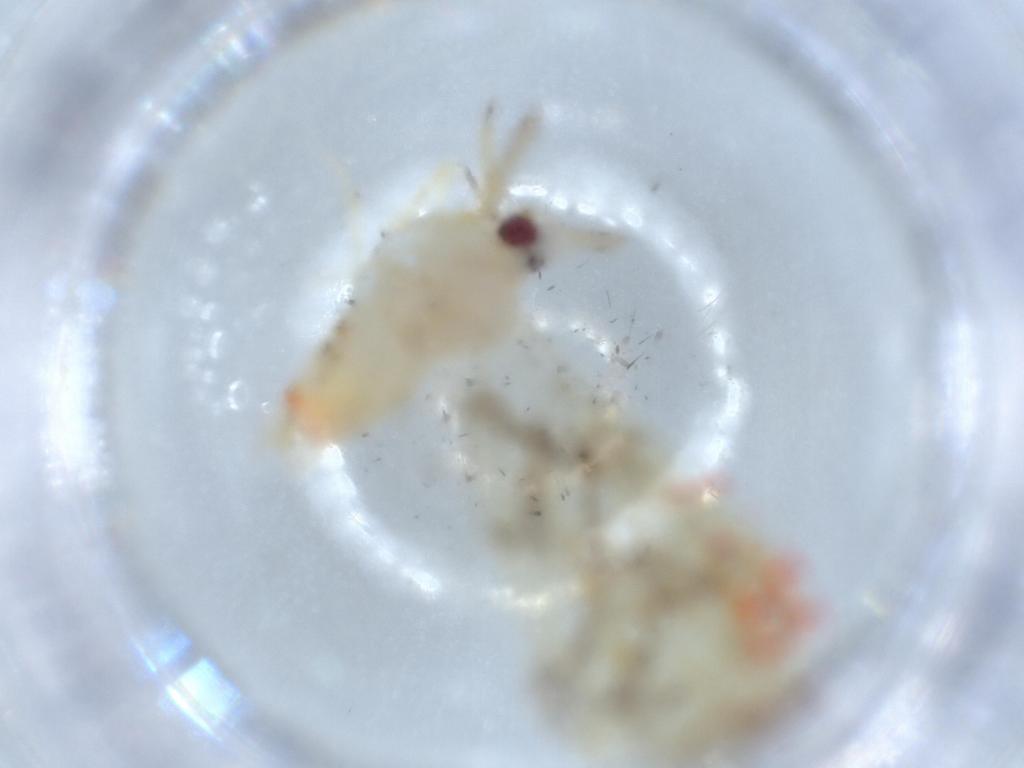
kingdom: Animalia
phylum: Arthropoda
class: Insecta
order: Hemiptera
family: Derbidae
